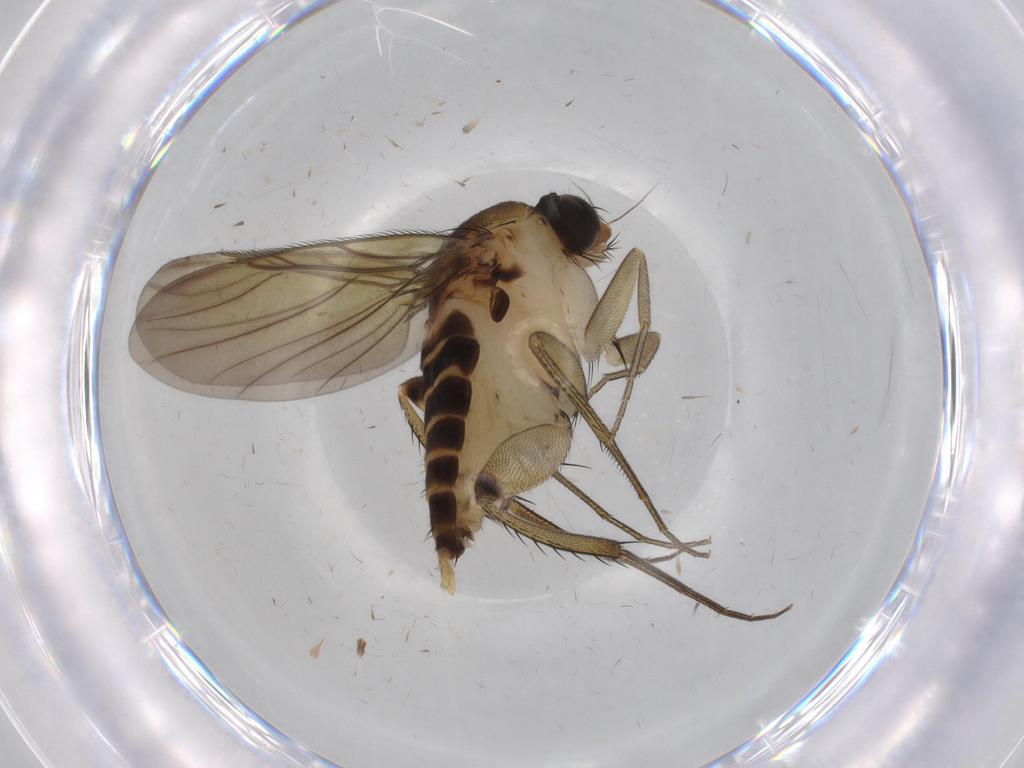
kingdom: Animalia
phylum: Arthropoda
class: Insecta
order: Diptera
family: Phoridae
